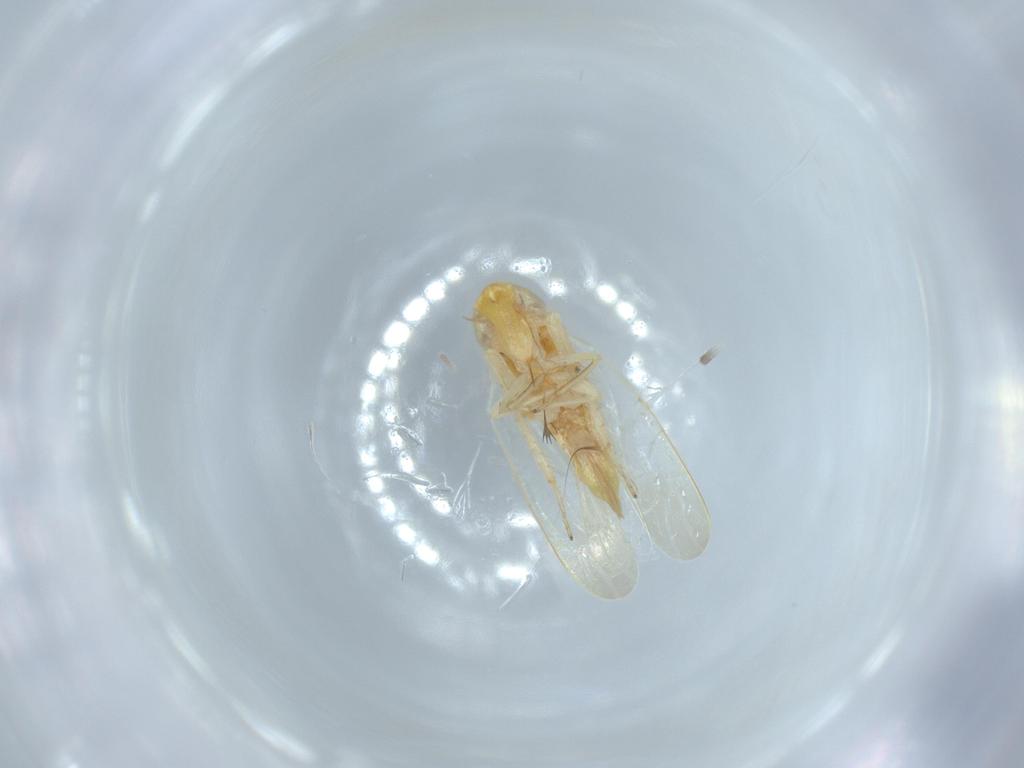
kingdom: Animalia
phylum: Arthropoda
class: Insecta
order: Hemiptera
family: Cicadellidae
